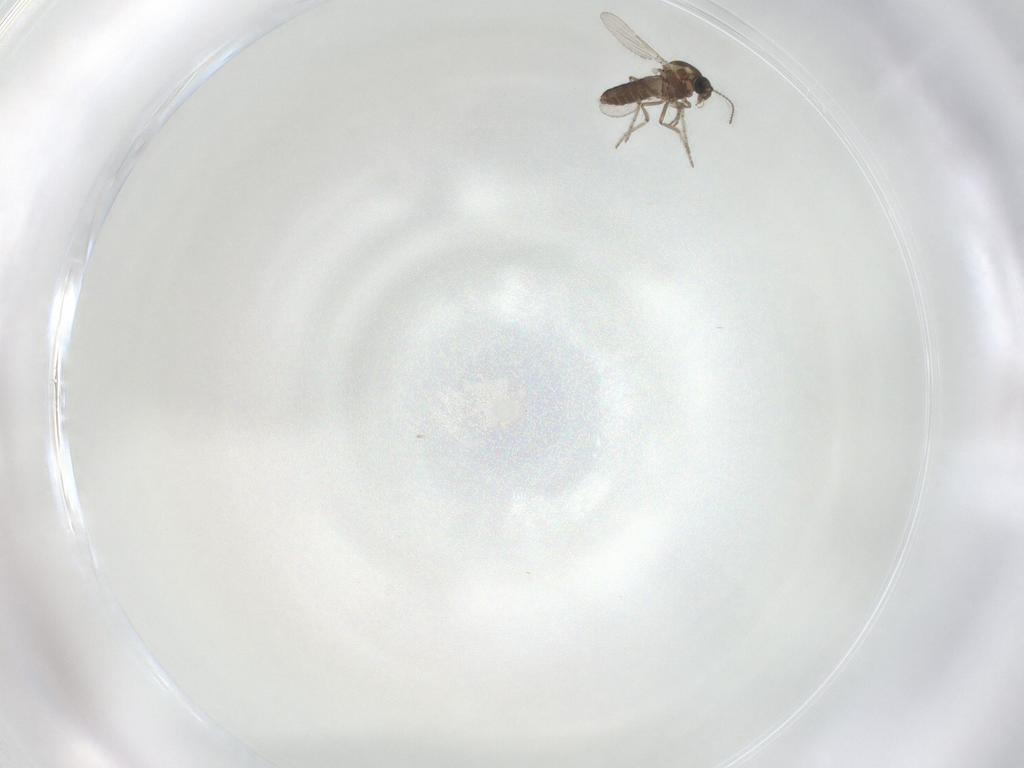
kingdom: Animalia
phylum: Arthropoda
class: Insecta
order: Diptera
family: Ceratopogonidae
